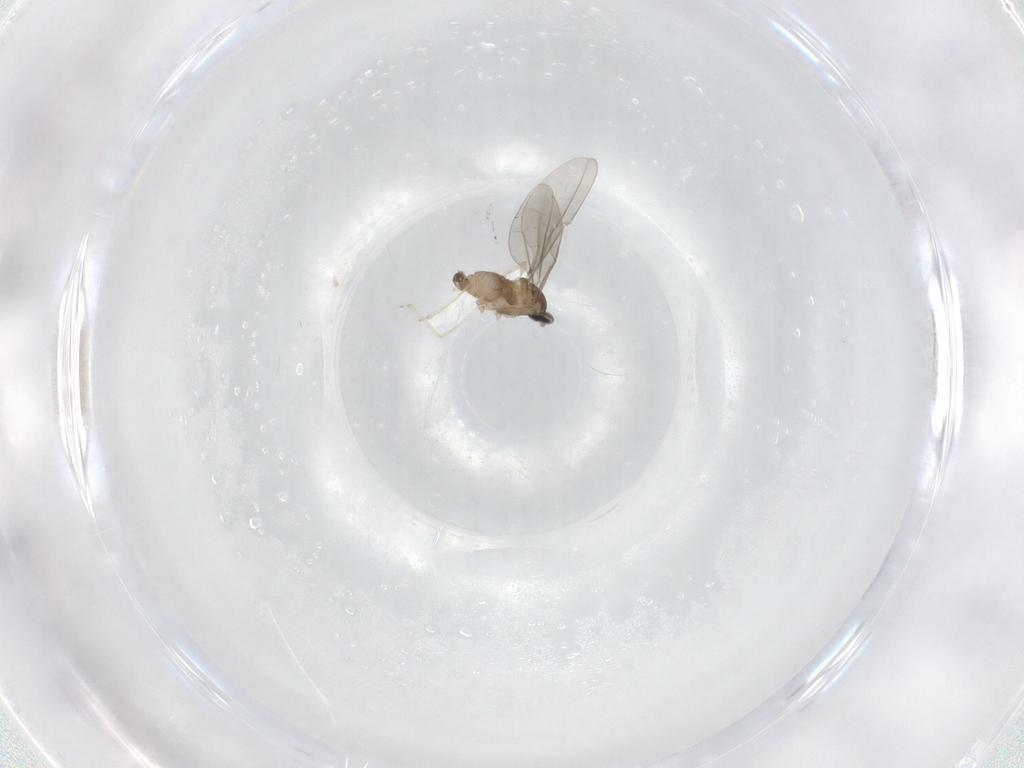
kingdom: Animalia
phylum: Arthropoda
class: Insecta
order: Diptera
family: Cecidomyiidae
